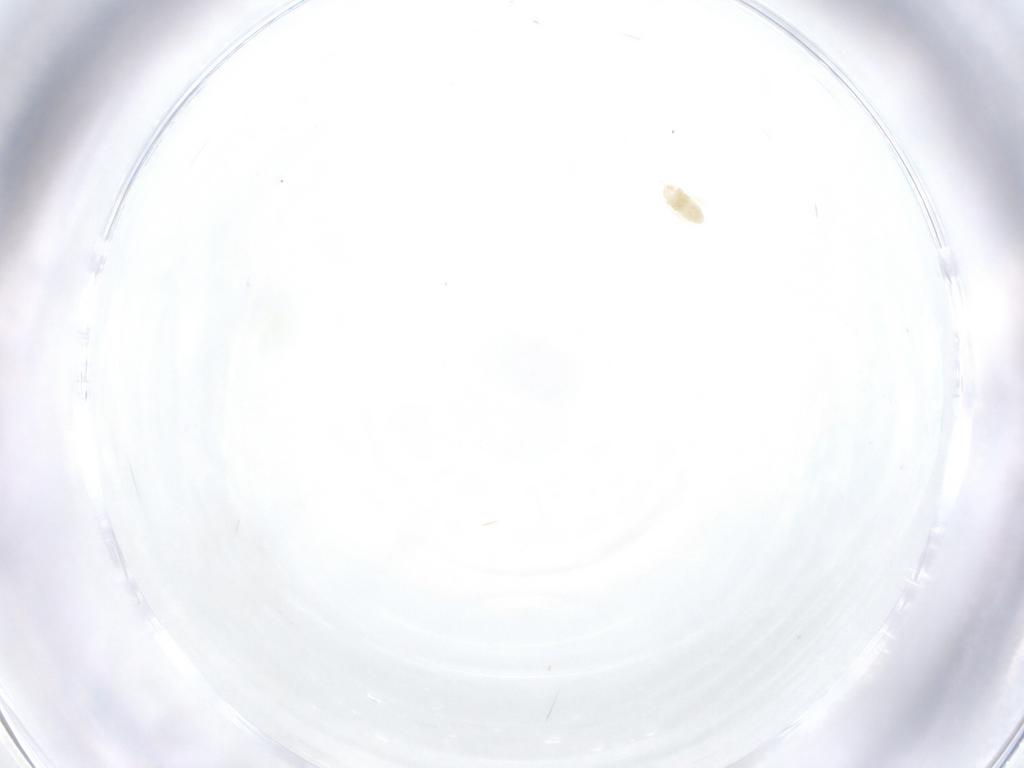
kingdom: Animalia
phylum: Arthropoda
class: Arachnida
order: Trombidiformes
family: Eupodidae
